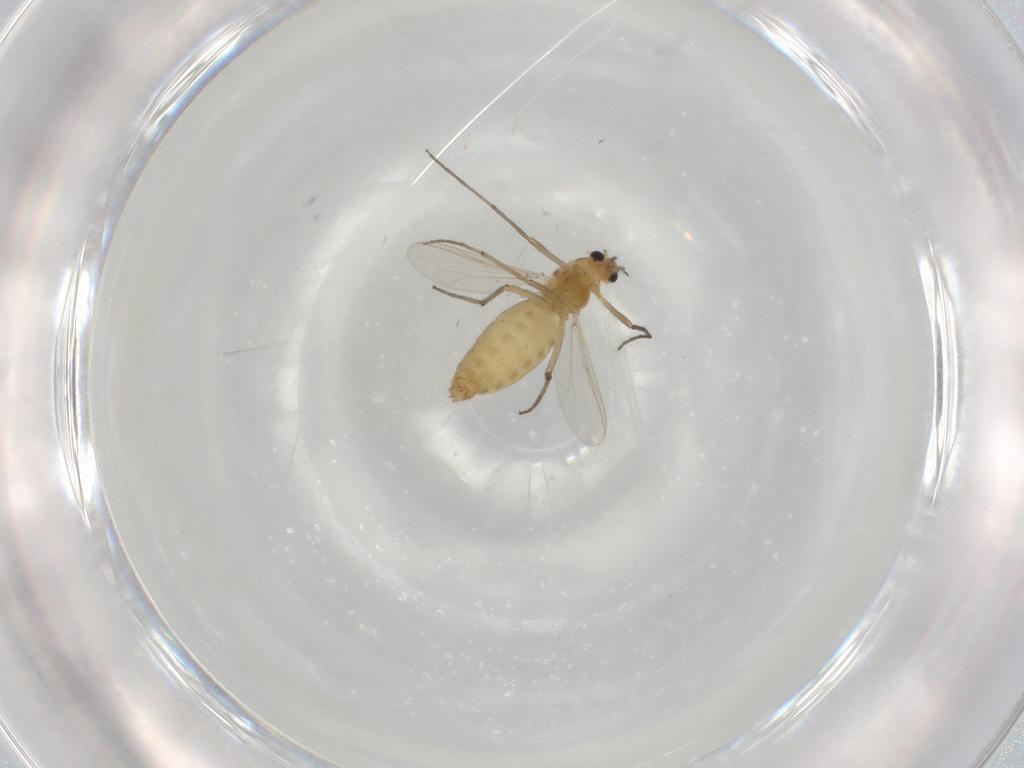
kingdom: Animalia
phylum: Arthropoda
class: Insecta
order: Diptera
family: Chironomidae
